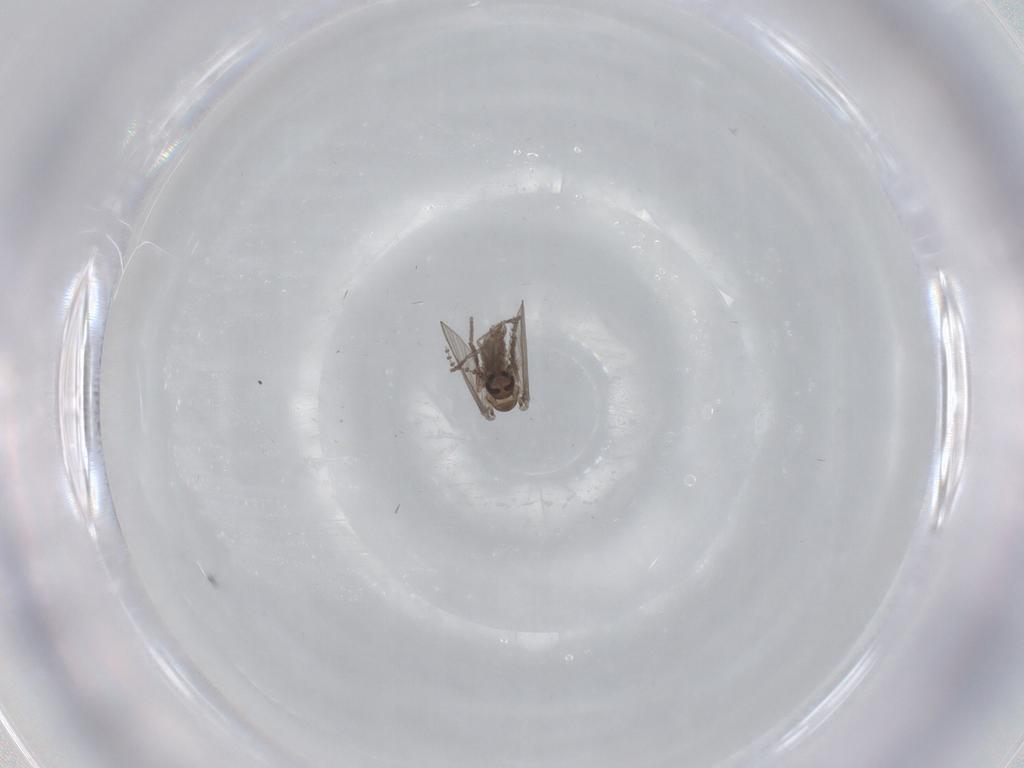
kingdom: Animalia
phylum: Arthropoda
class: Insecta
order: Diptera
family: Psychodidae
